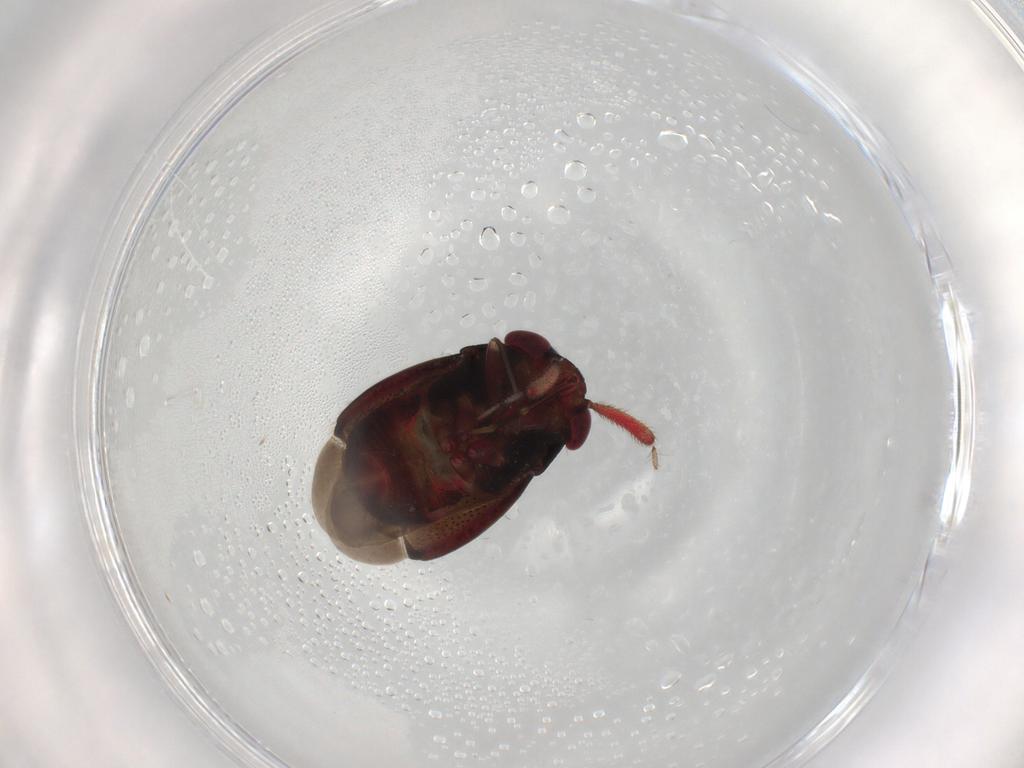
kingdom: Animalia
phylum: Arthropoda
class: Insecta
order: Hemiptera
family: Miridae
